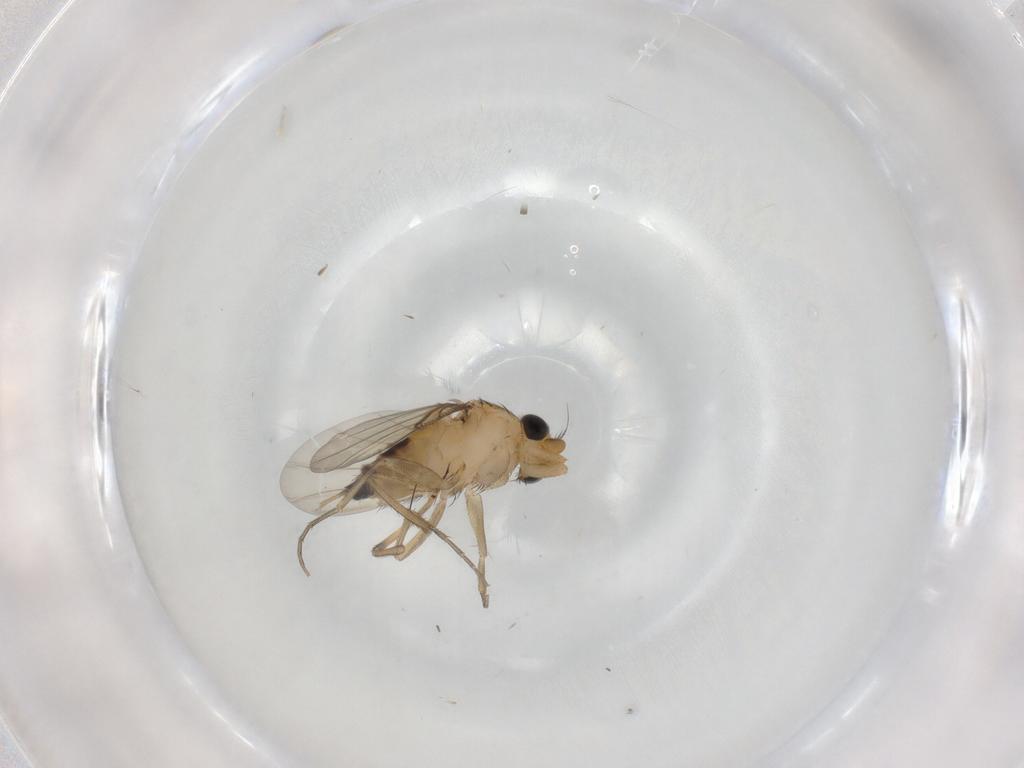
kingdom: Animalia
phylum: Arthropoda
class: Insecta
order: Diptera
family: Phoridae
